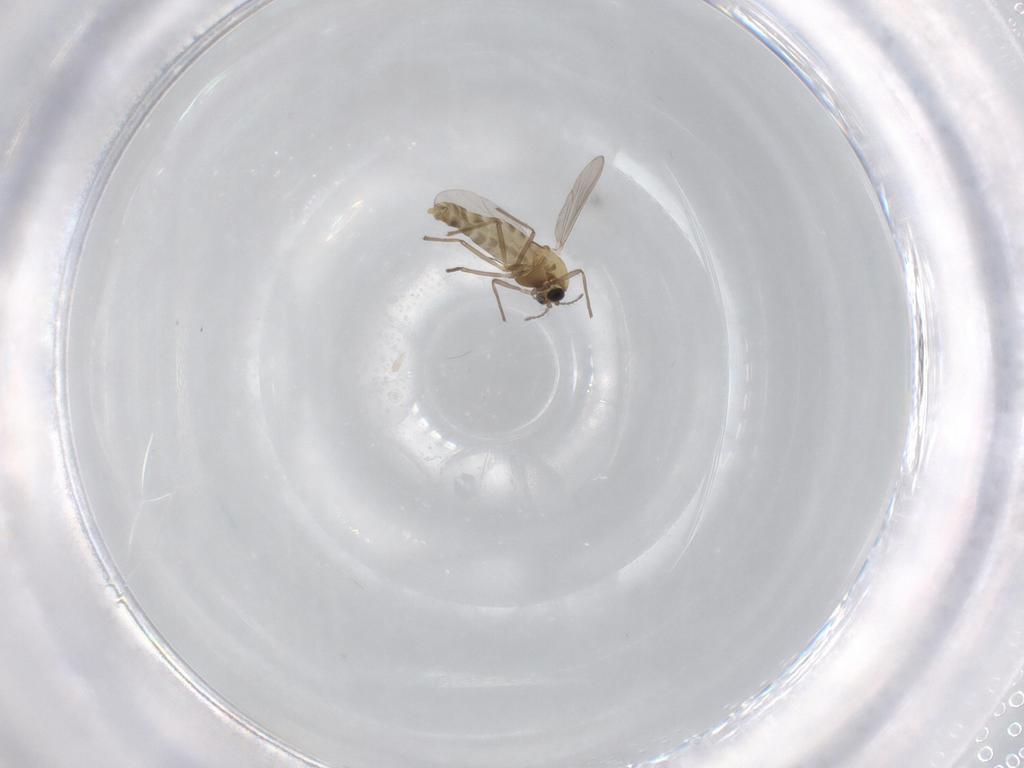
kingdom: Animalia
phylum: Arthropoda
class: Insecta
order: Diptera
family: Chironomidae
